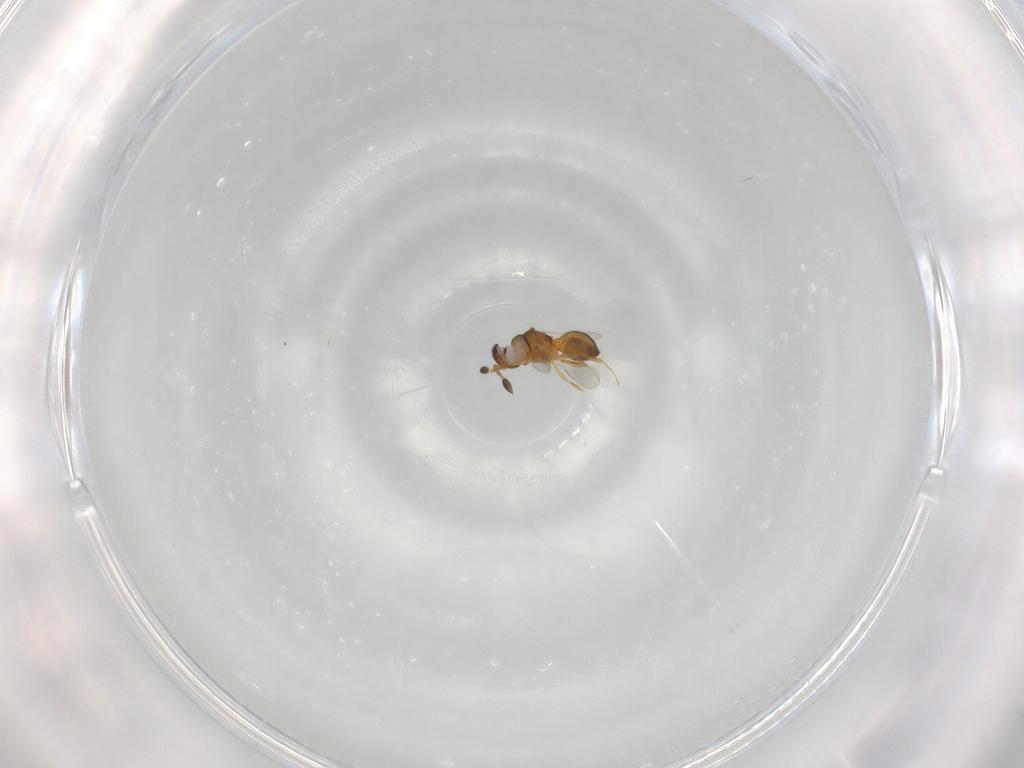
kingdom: Animalia
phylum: Arthropoda
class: Insecta
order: Hymenoptera
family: Scelionidae
